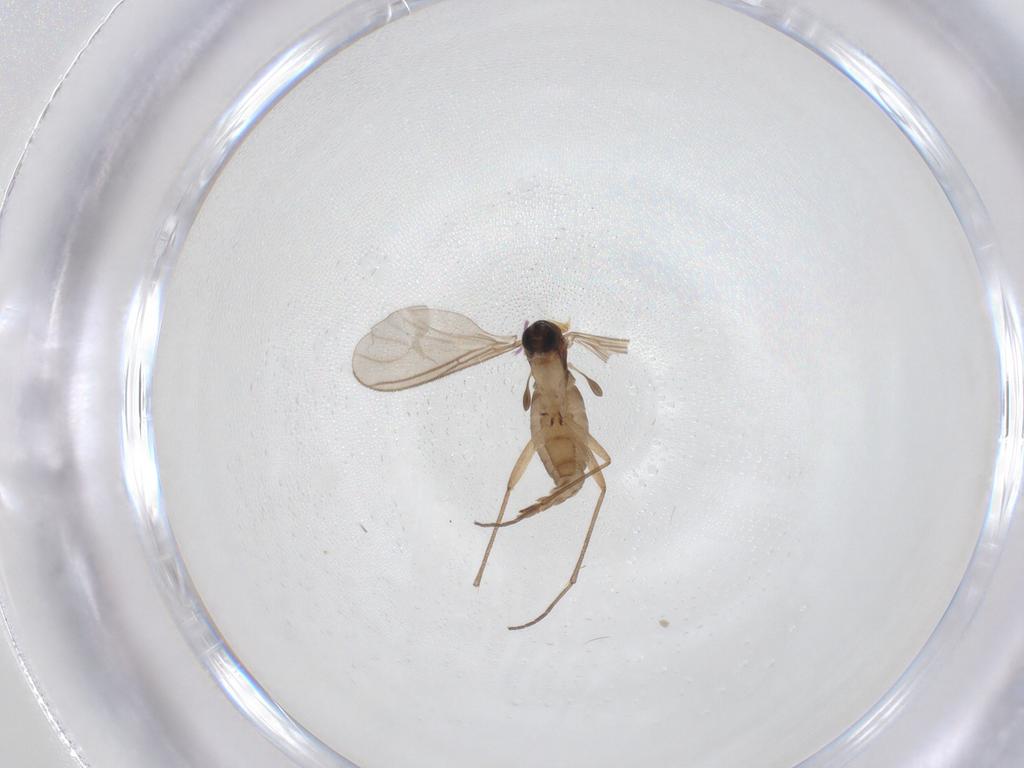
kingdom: Animalia
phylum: Arthropoda
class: Insecta
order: Diptera
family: Sciaridae
